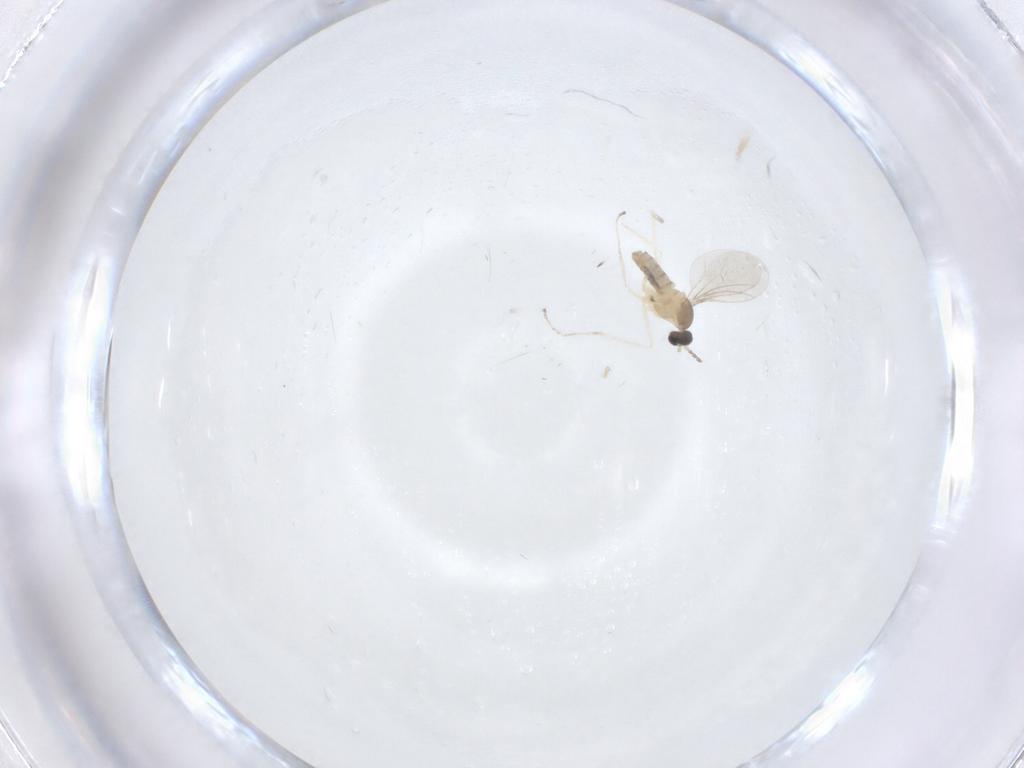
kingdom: Animalia
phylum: Arthropoda
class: Insecta
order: Diptera
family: Cecidomyiidae
